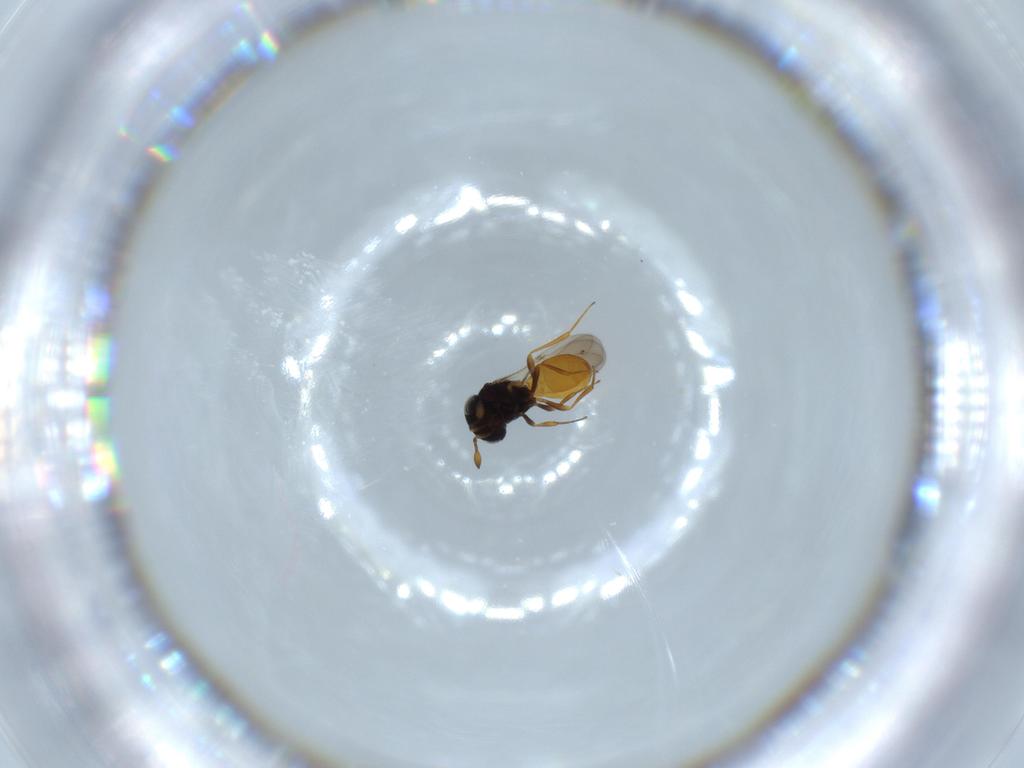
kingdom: Animalia
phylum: Arthropoda
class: Insecta
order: Hymenoptera
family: Scelionidae
